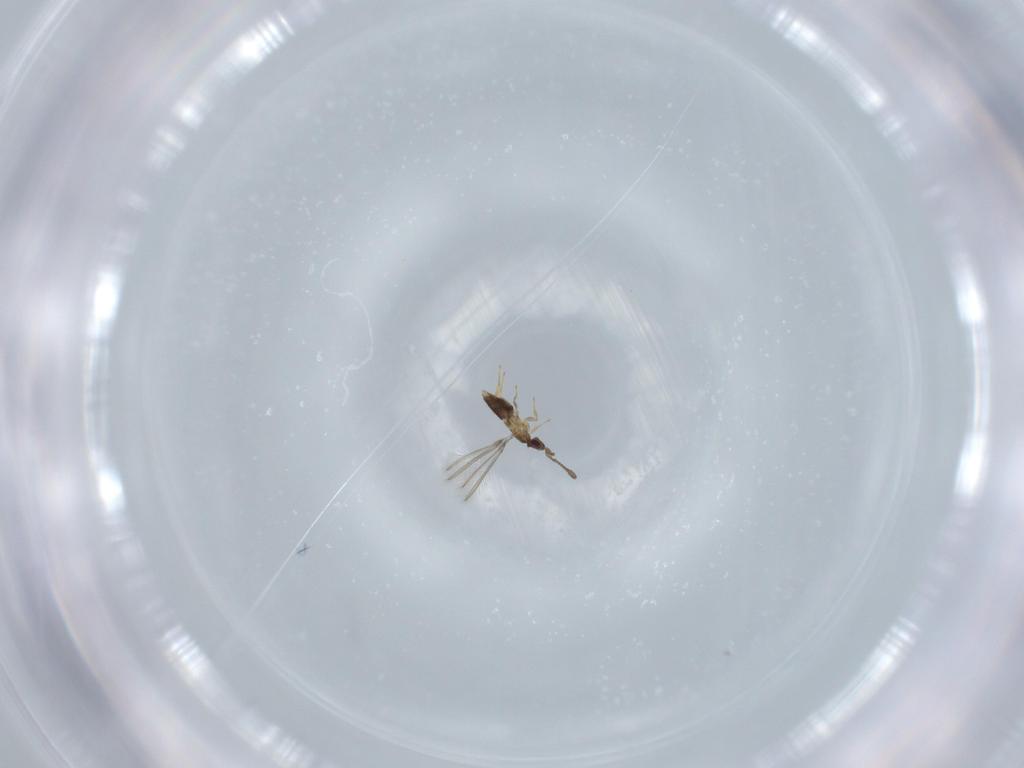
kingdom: Animalia
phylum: Arthropoda
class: Insecta
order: Hymenoptera
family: Mymaridae
